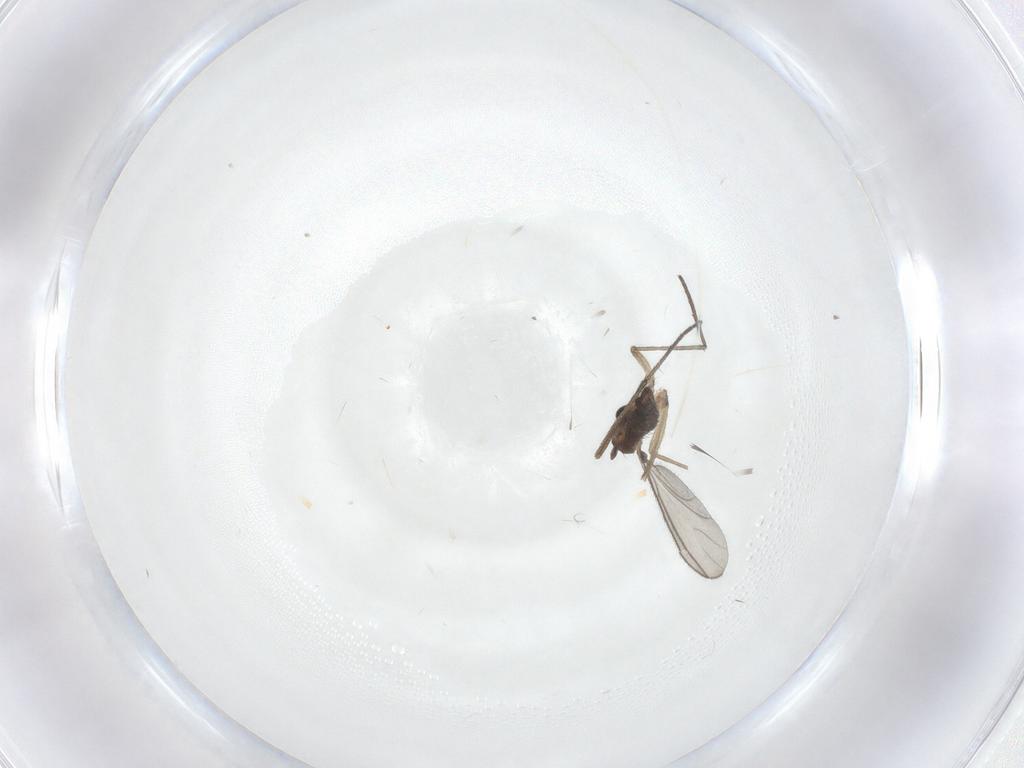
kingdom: Animalia
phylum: Arthropoda
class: Insecta
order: Diptera
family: Sciaridae
